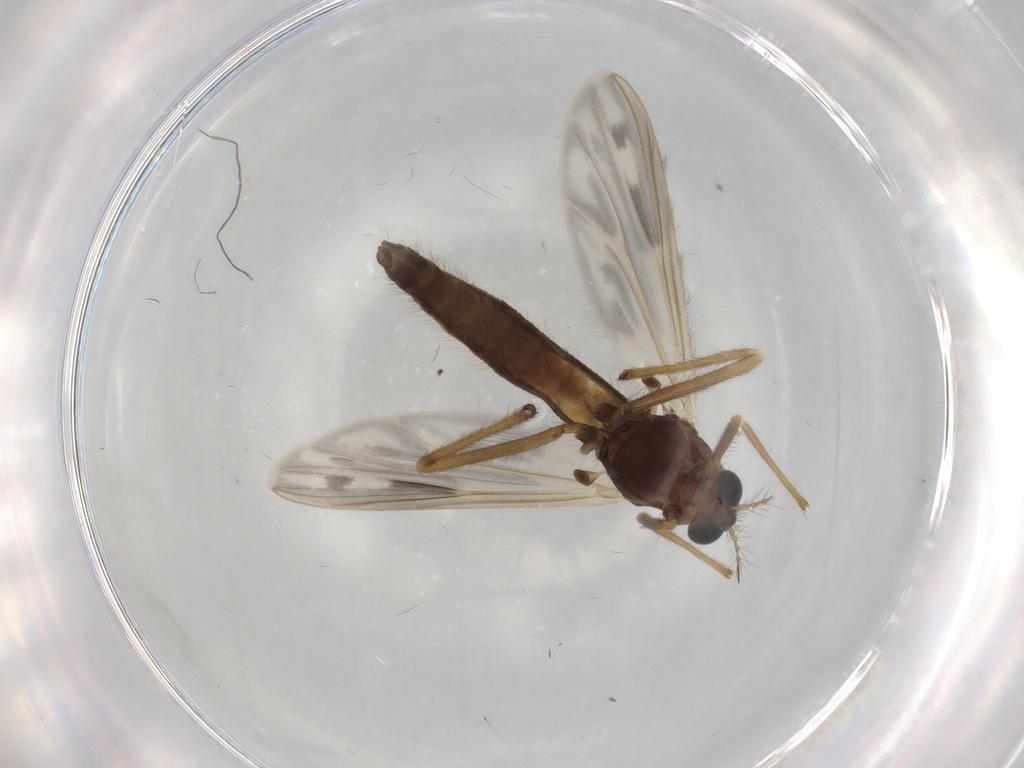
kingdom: Animalia
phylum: Arthropoda
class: Insecta
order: Diptera
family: Chironomidae
